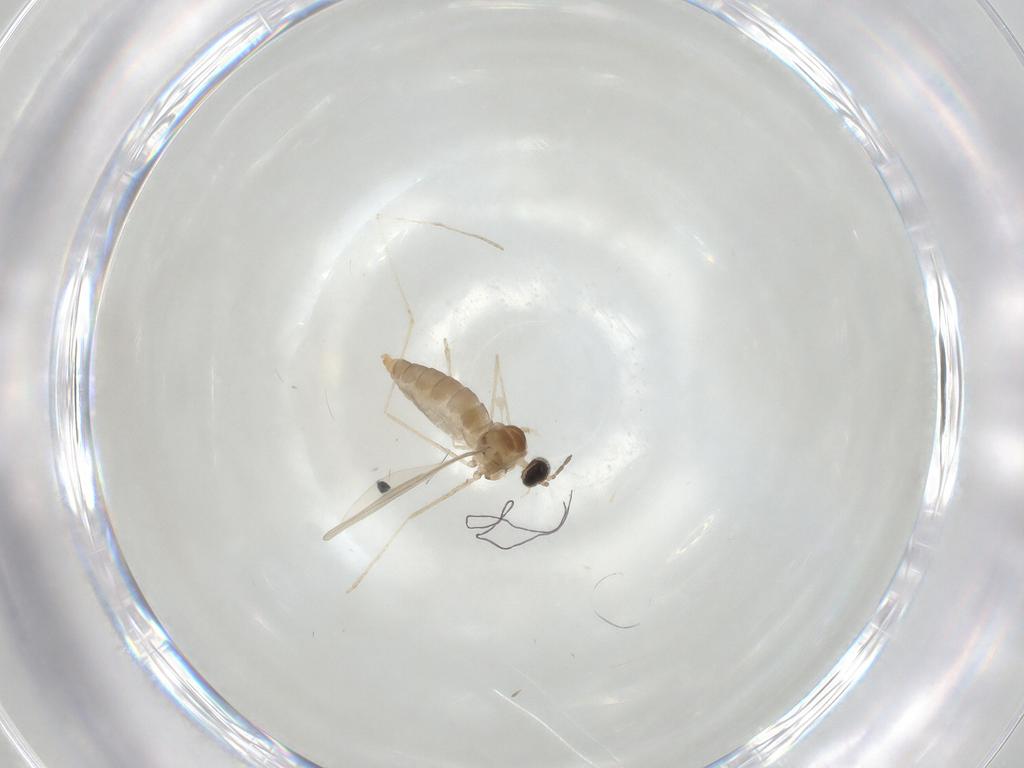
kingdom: Animalia
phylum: Arthropoda
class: Insecta
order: Diptera
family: Cecidomyiidae
